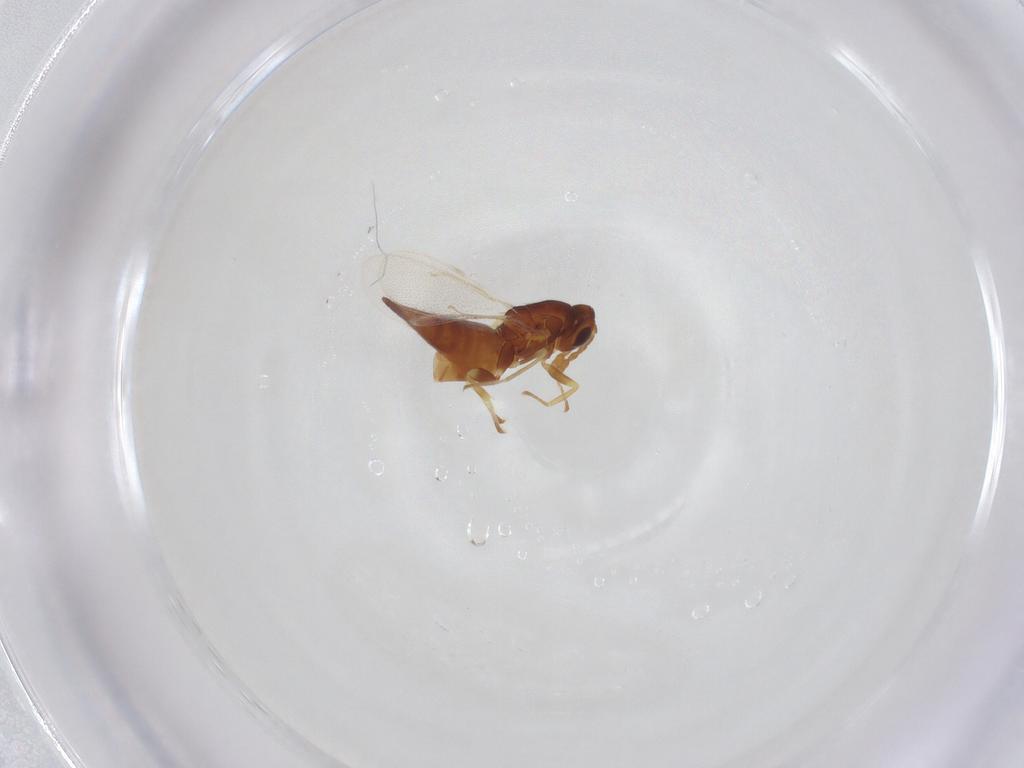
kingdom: Animalia
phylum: Arthropoda
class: Insecta
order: Hymenoptera
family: Eulophidae
